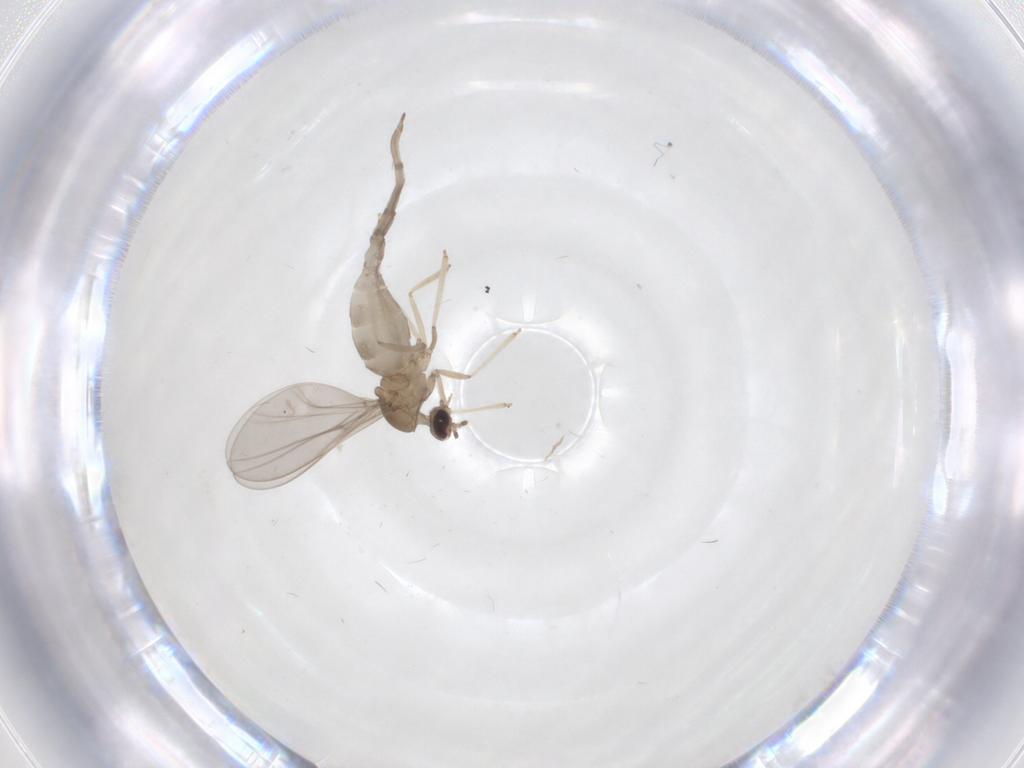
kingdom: Animalia
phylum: Arthropoda
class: Insecta
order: Diptera
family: Cecidomyiidae
